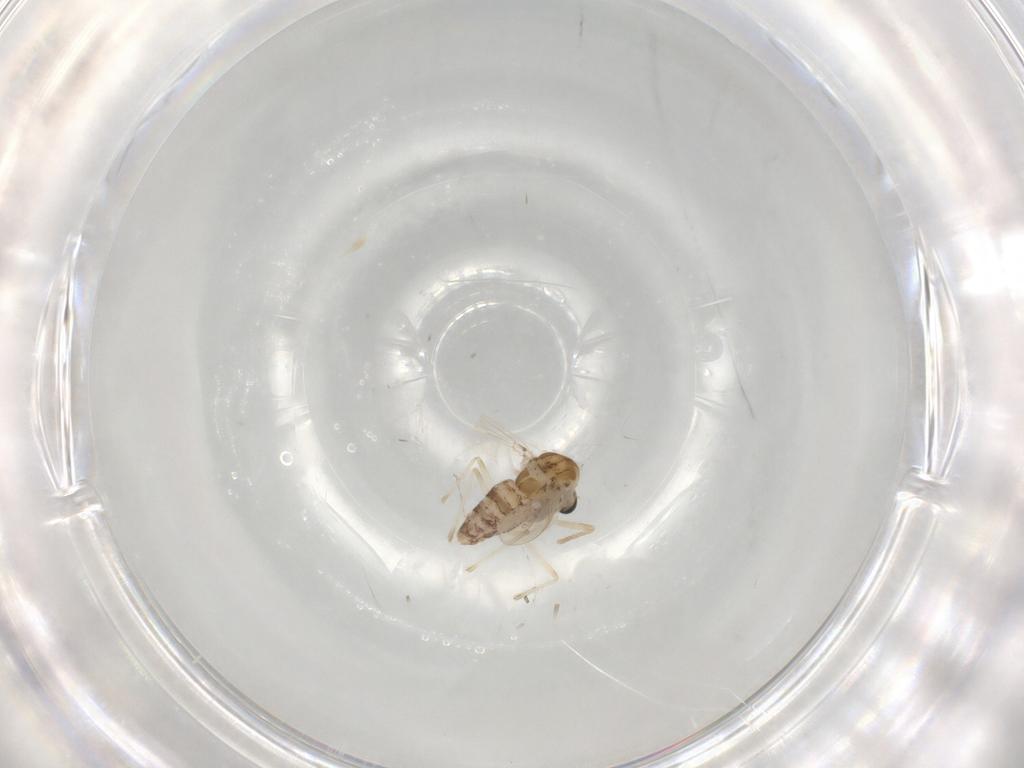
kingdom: Animalia
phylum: Arthropoda
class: Insecta
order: Diptera
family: Chironomidae
